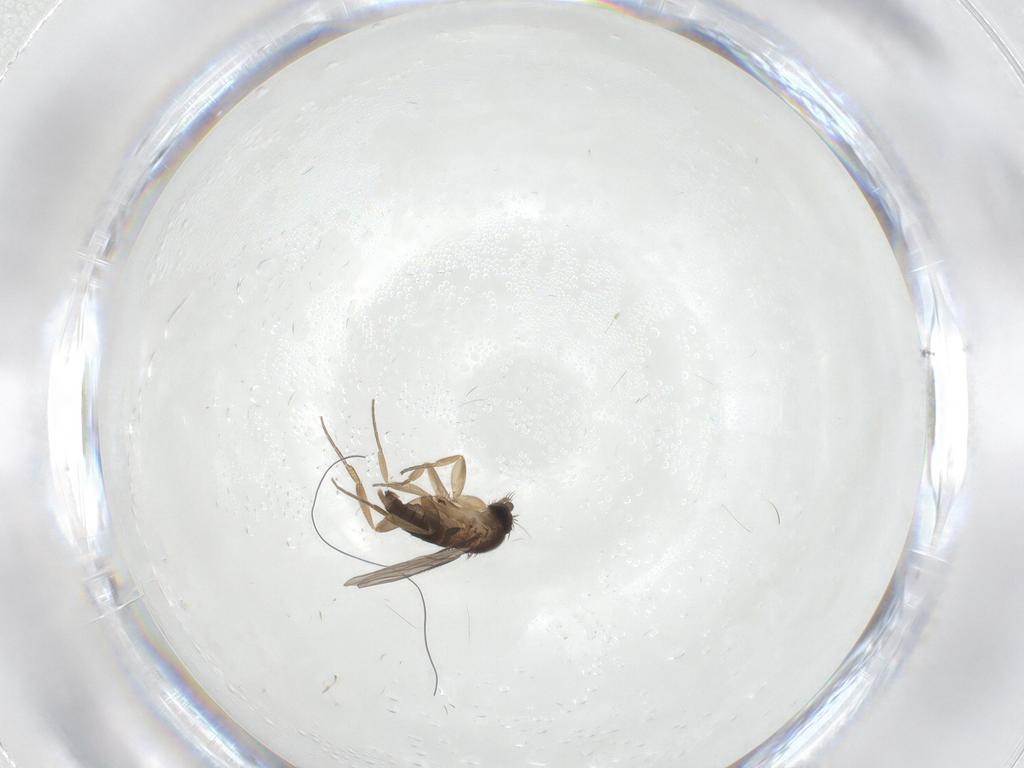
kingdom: Animalia
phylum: Arthropoda
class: Insecta
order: Diptera
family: Psychodidae
